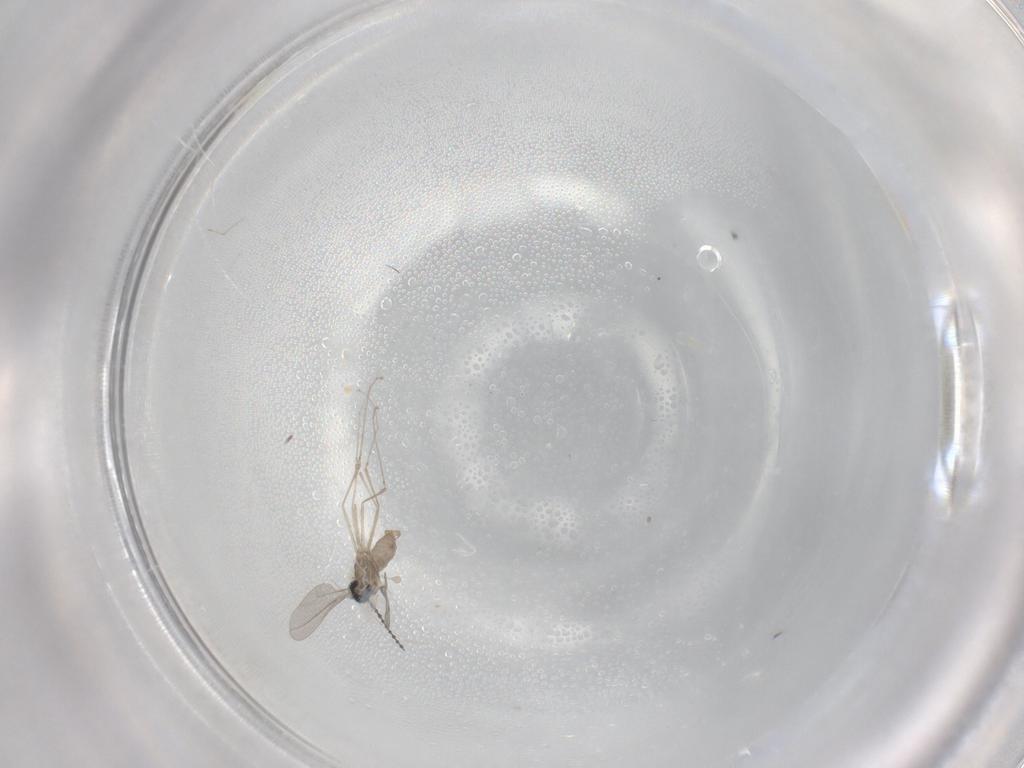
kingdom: Animalia
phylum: Arthropoda
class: Insecta
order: Diptera
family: Cecidomyiidae
